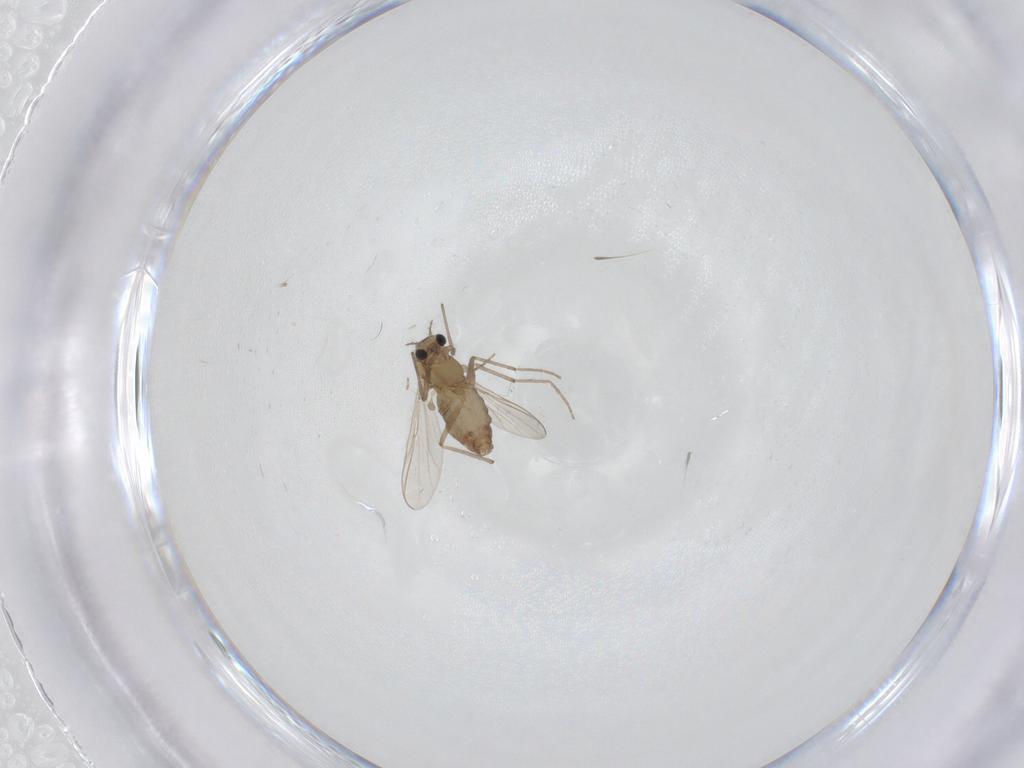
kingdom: Animalia
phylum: Arthropoda
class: Insecta
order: Diptera
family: Chironomidae
